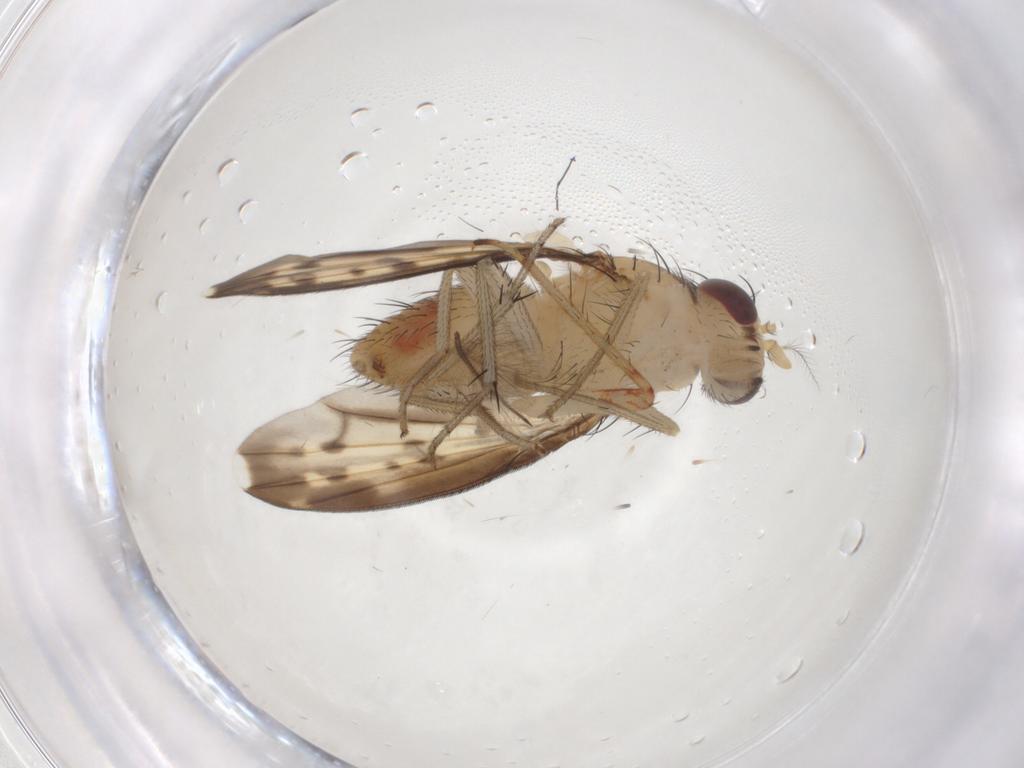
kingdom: Animalia
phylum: Arthropoda
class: Insecta
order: Diptera
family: Sciaridae
